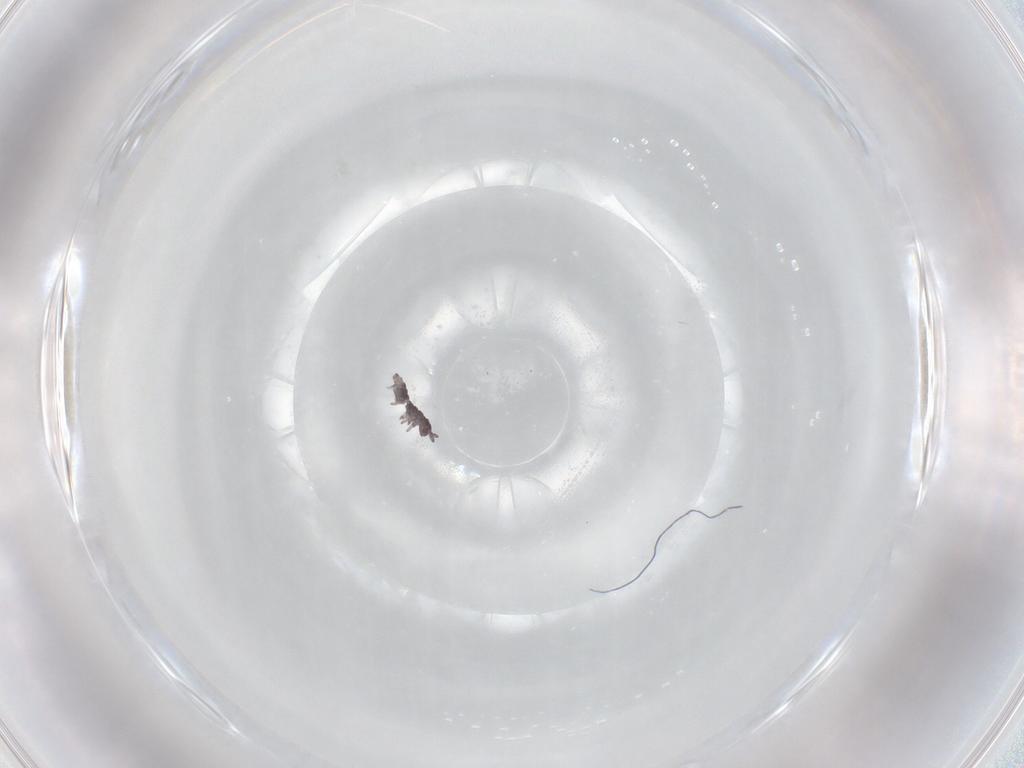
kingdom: Animalia
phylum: Arthropoda
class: Collembola
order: Poduromorpha
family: Hypogastruridae
